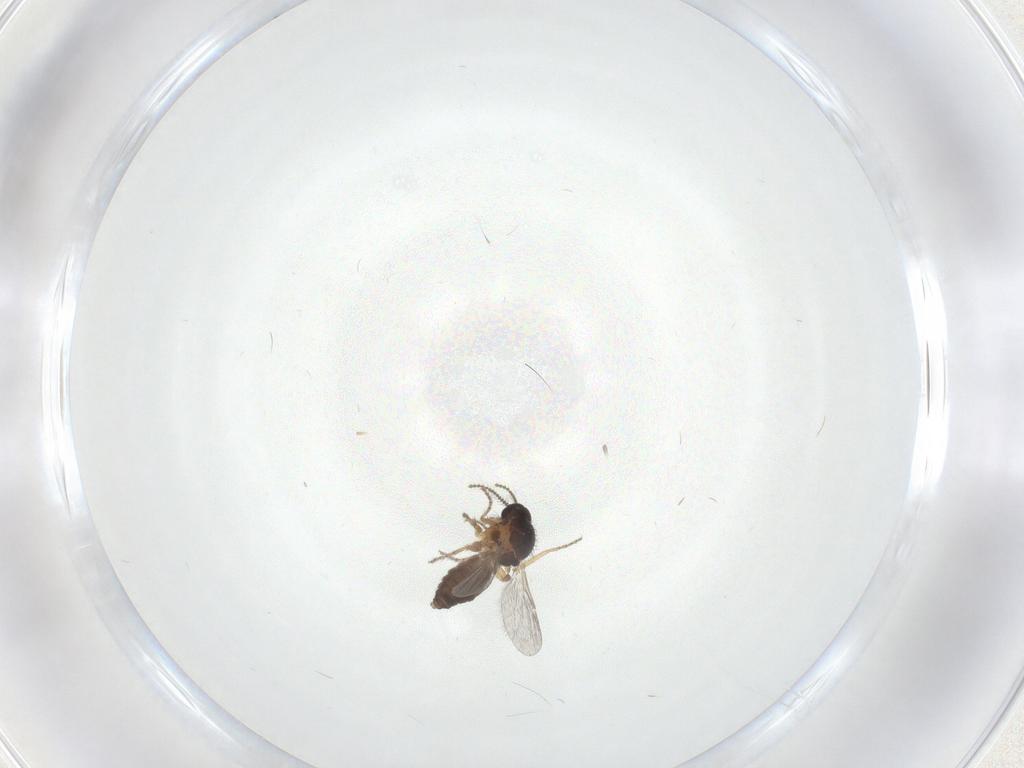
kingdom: Animalia
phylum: Arthropoda
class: Insecta
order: Diptera
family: Ceratopogonidae
